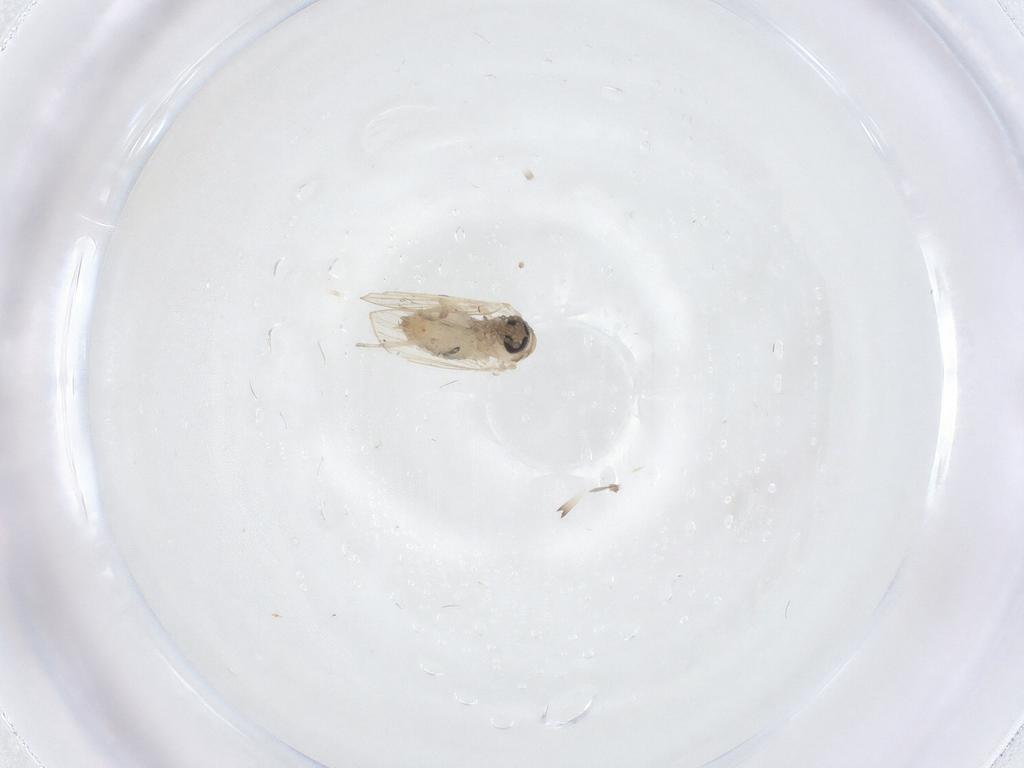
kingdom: Animalia
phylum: Arthropoda
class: Insecta
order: Diptera
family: Psychodidae
